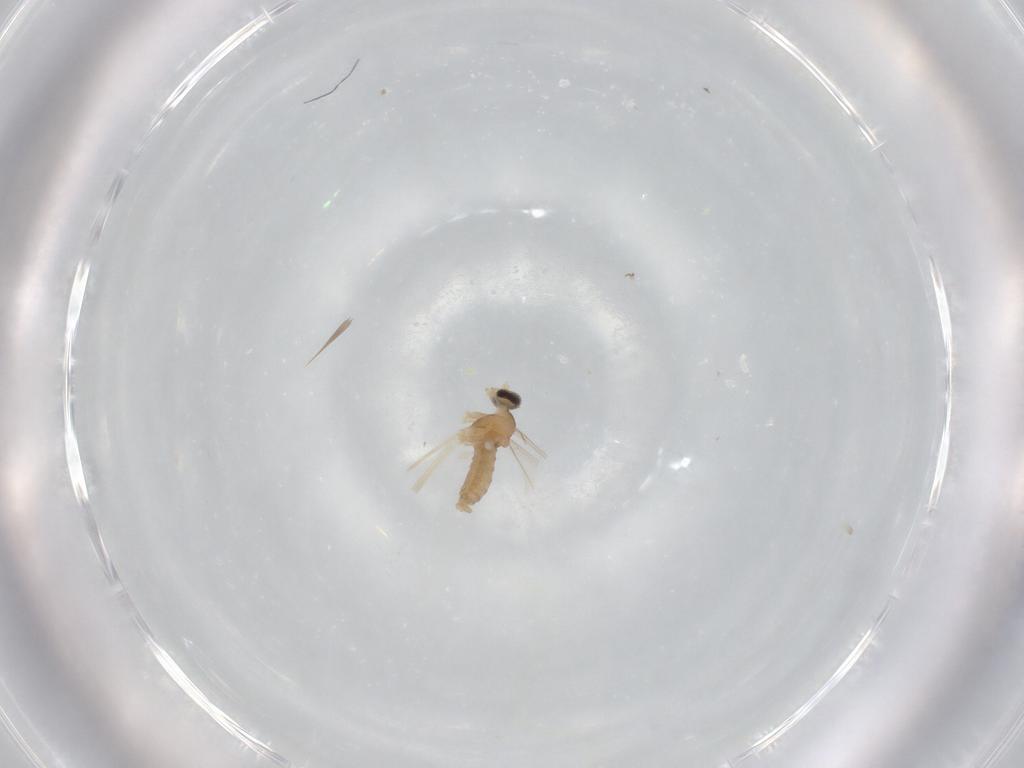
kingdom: Animalia
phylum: Arthropoda
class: Insecta
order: Diptera
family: Cecidomyiidae
